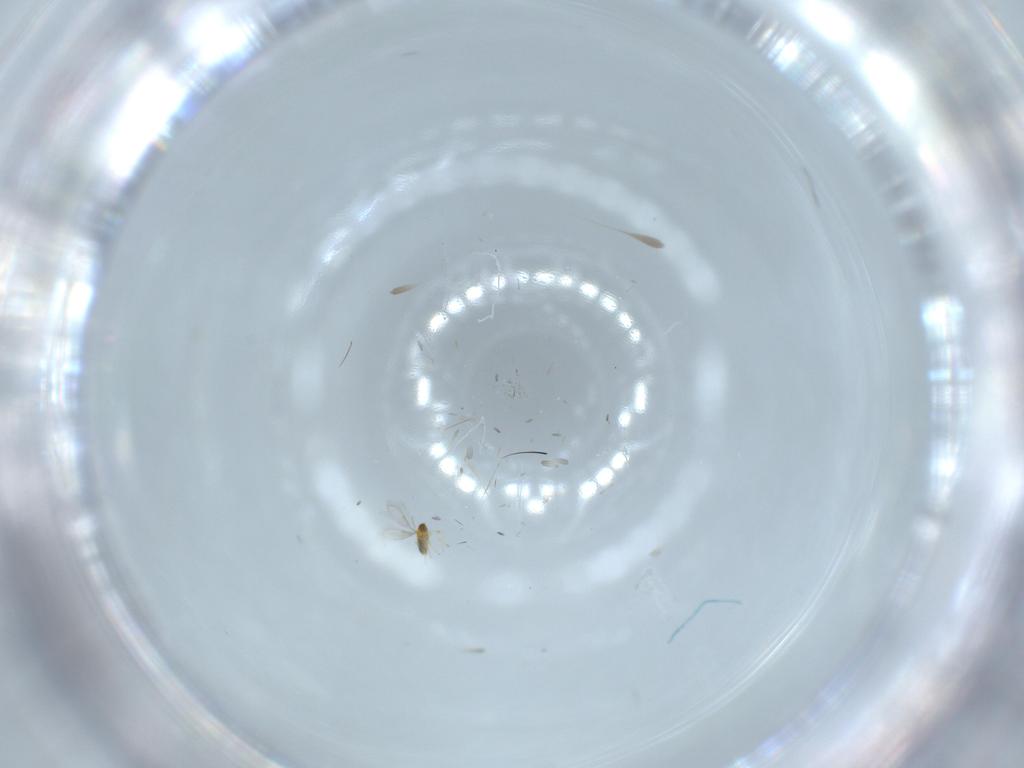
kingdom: Animalia
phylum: Arthropoda
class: Insecta
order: Hymenoptera
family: Aphelinidae
